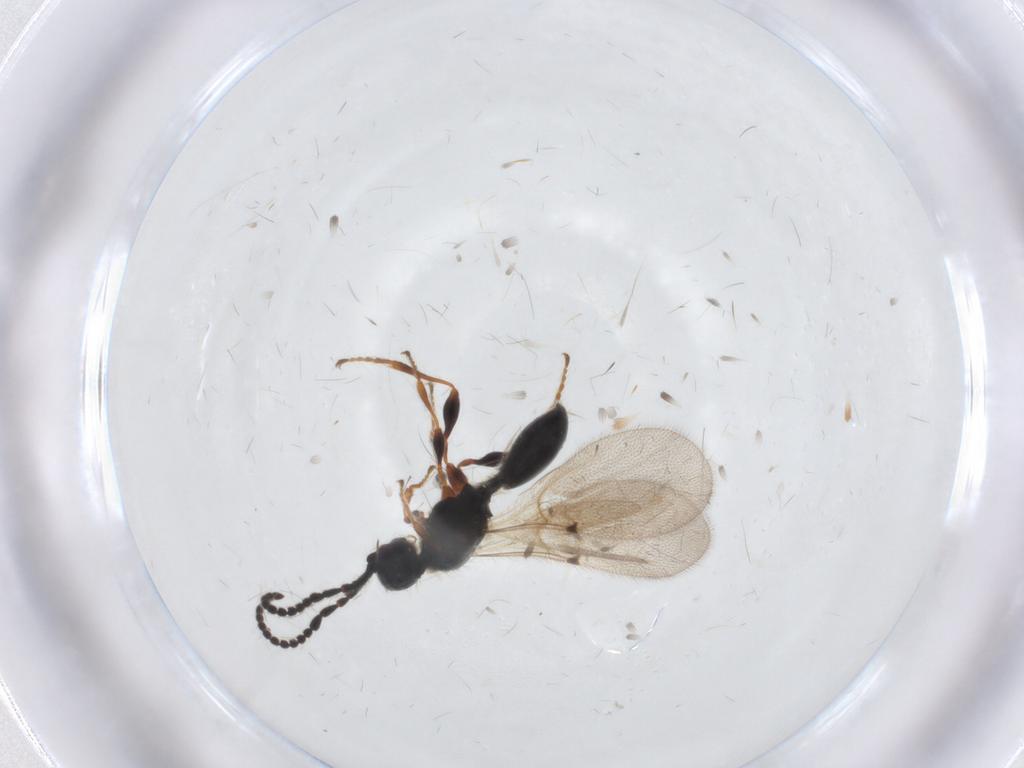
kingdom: Animalia
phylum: Arthropoda
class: Insecta
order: Hymenoptera
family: Diapriidae
